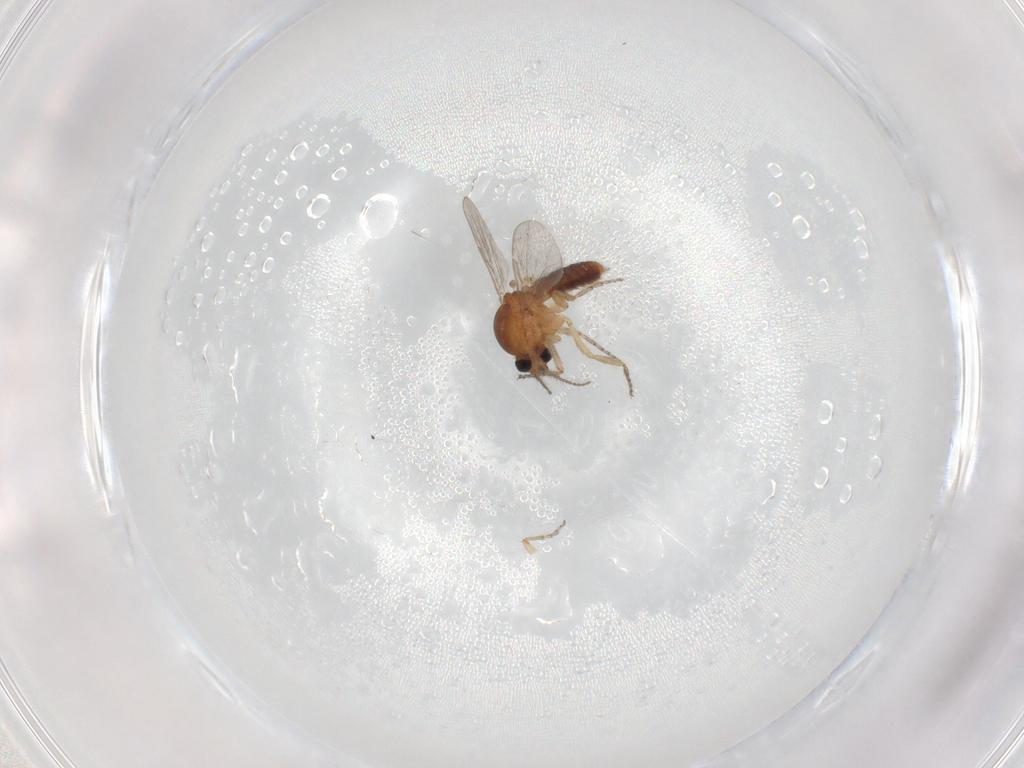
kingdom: Animalia
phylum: Arthropoda
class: Insecta
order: Diptera
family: Ceratopogonidae
